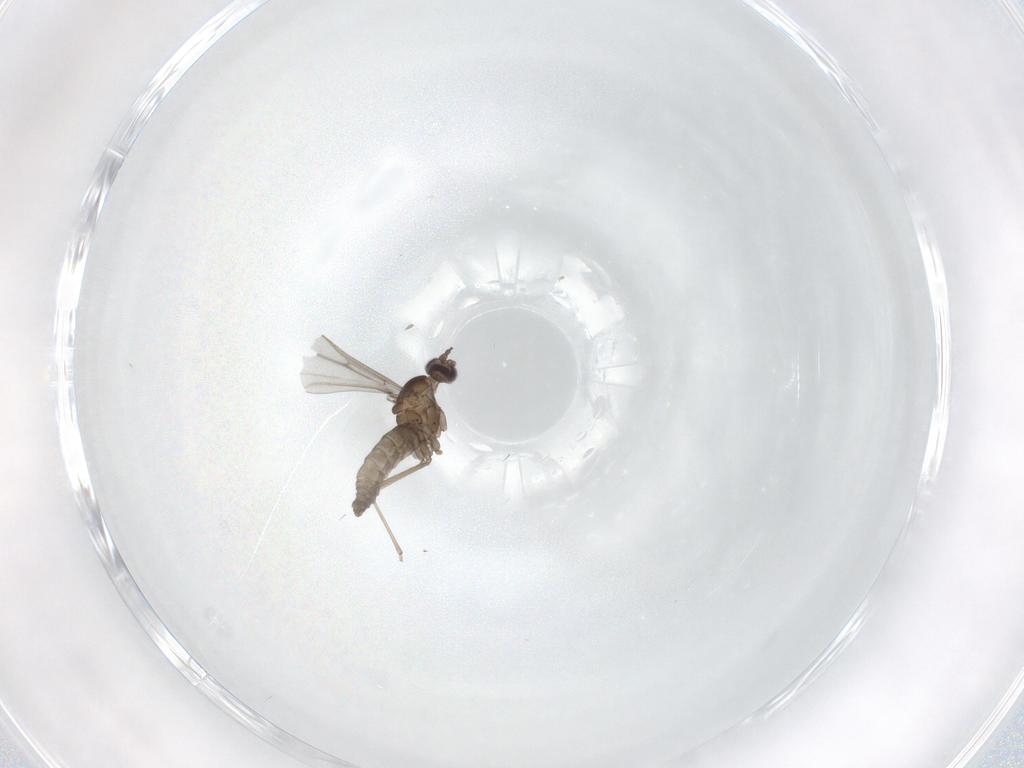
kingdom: Animalia
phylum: Arthropoda
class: Insecta
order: Diptera
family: Cecidomyiidae
